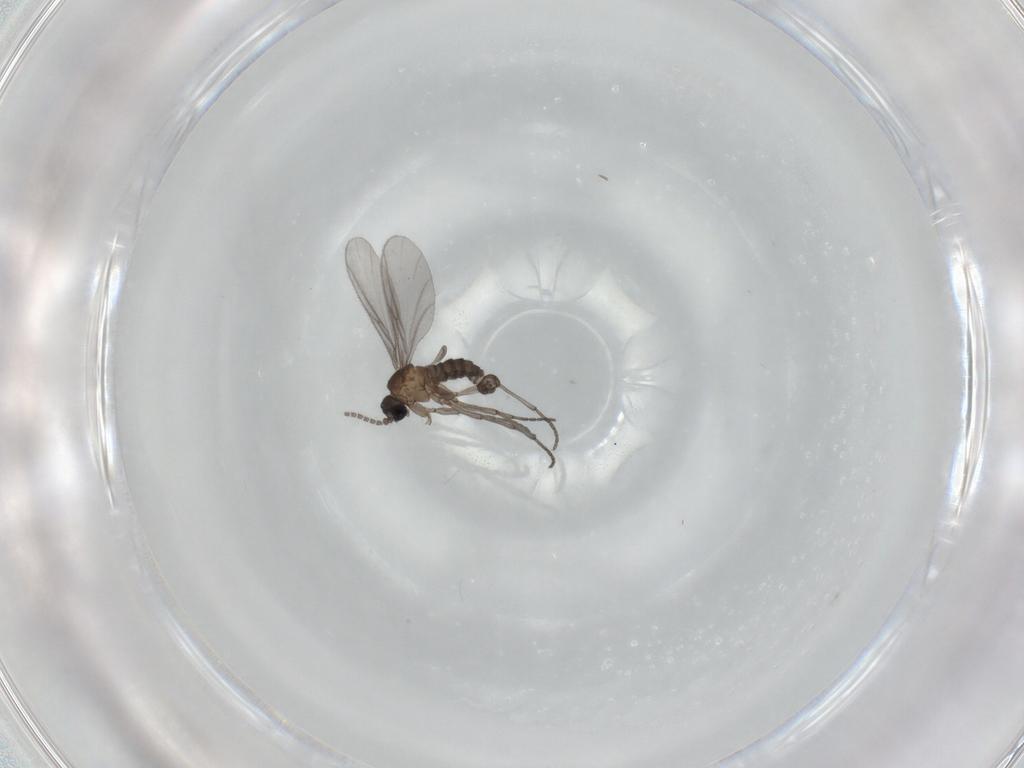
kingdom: Animalia
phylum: Arthropoda
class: Insecta
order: Diptera
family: Sciaridae
